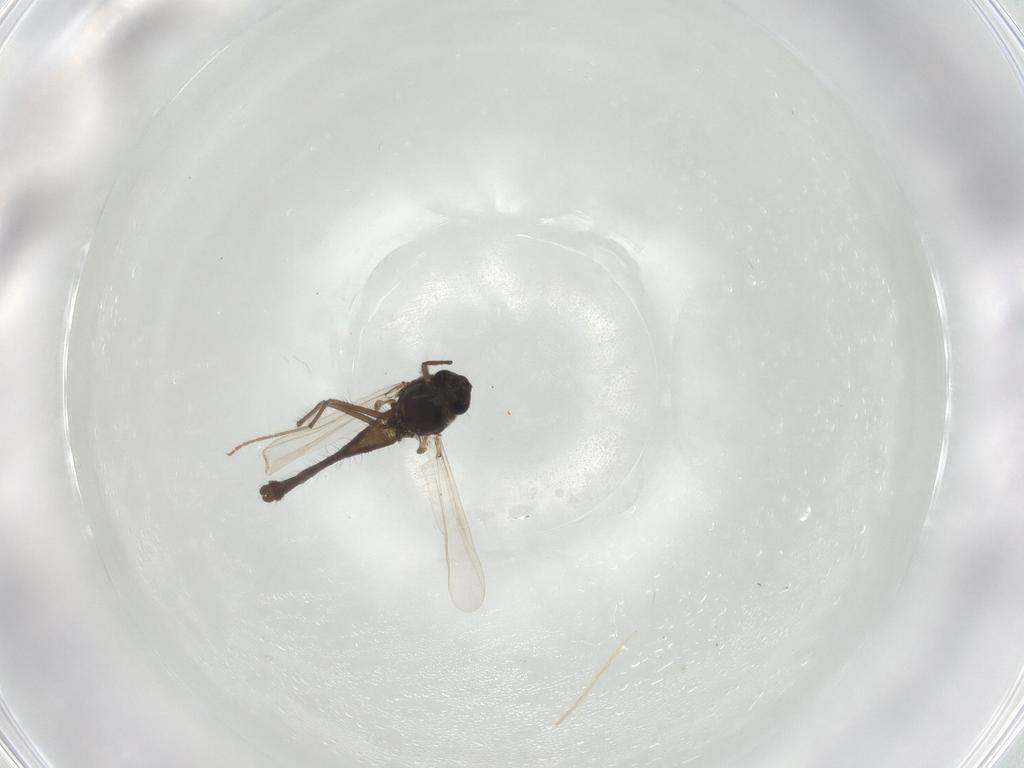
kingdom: Animalia
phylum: Arthropoda
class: Insecta
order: Diptera
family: Chironomidae
